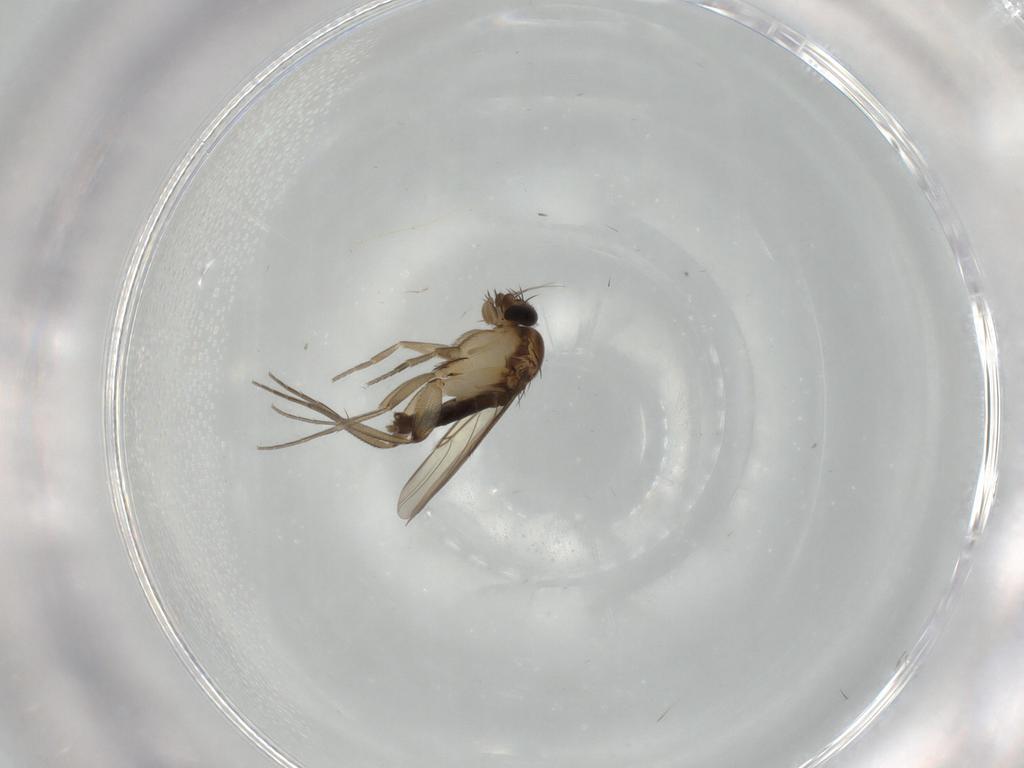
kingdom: Animalia
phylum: Arthropoda
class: Insecta
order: Diptera
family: Phoridae
